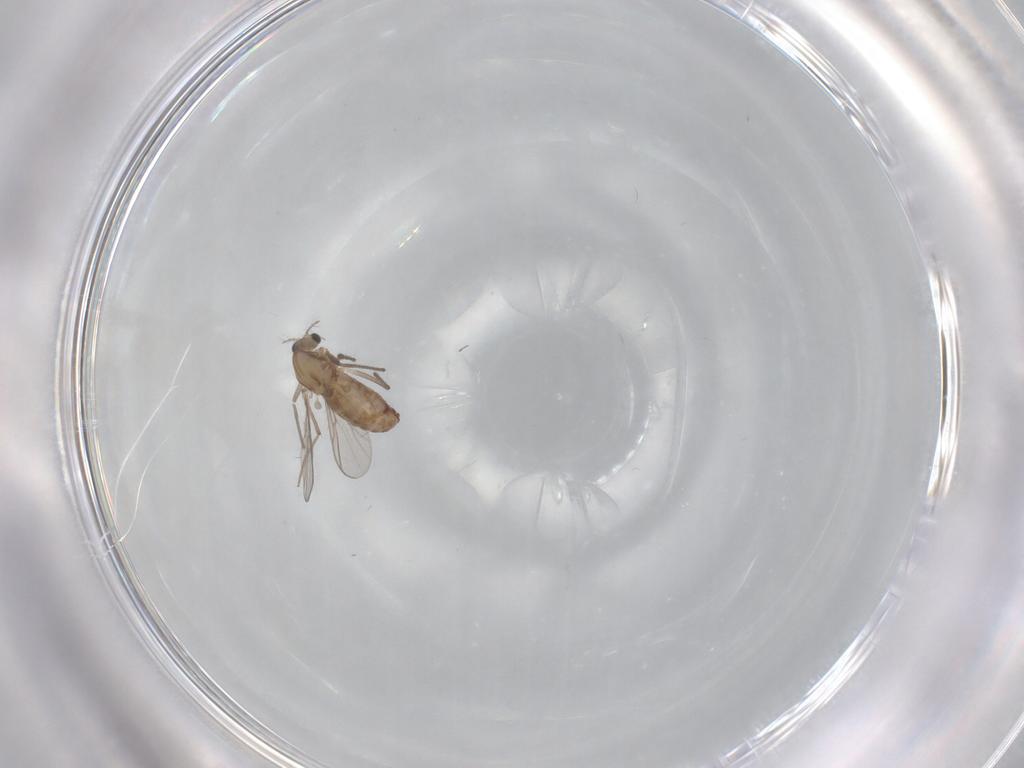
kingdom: Animalia
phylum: Arthropoda
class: Insecta
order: Diptera
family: Chironomidae
